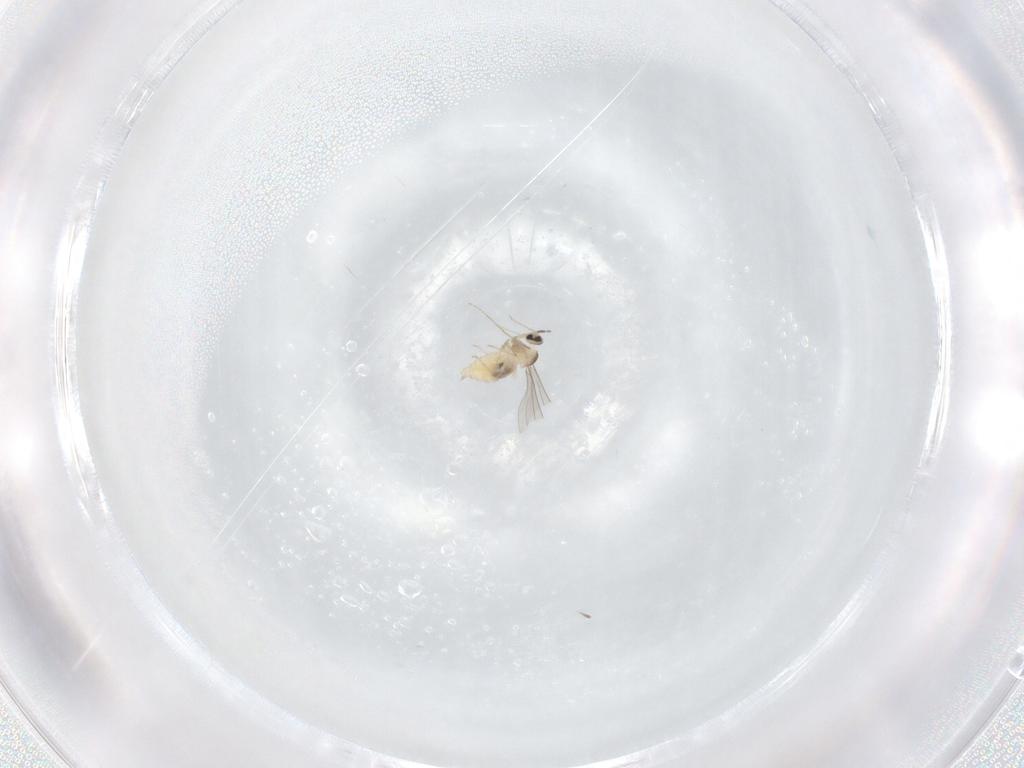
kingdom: Animalia
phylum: Arthropoda
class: Insecta
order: Diptera
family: Cecidomyiidae
